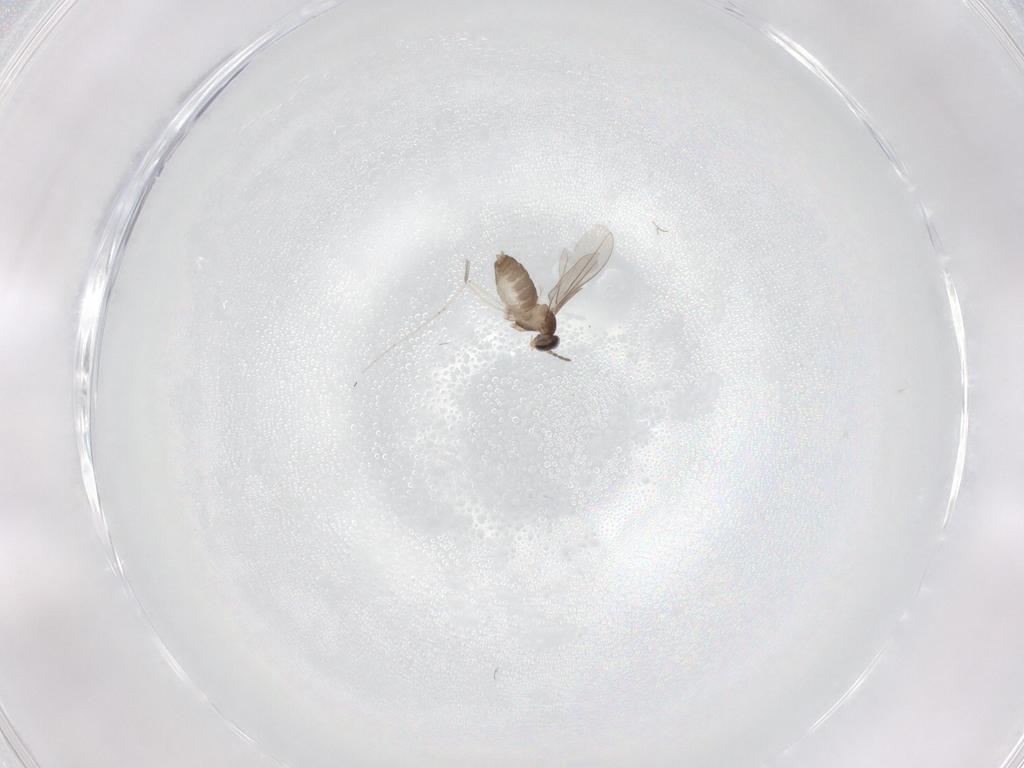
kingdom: Animalia
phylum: Arthropoda
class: Insecta
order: Diptera
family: Cecidomyiidae
